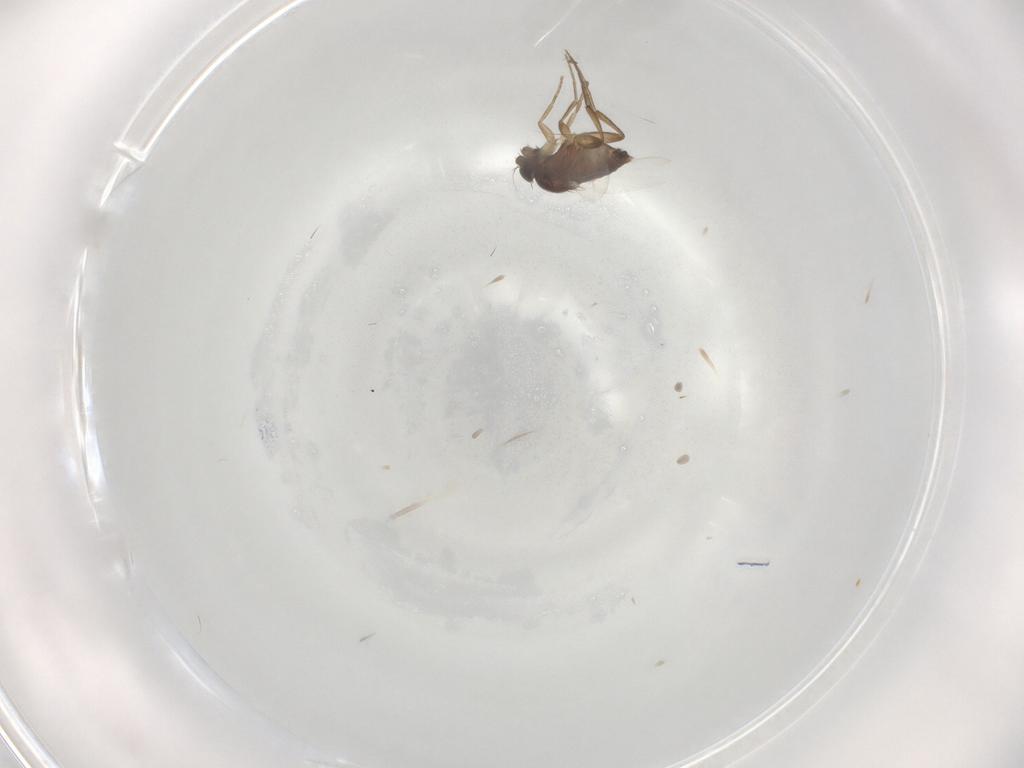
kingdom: Animalia
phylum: Arthropoda
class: Insecta
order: Diptera
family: Phoridae
